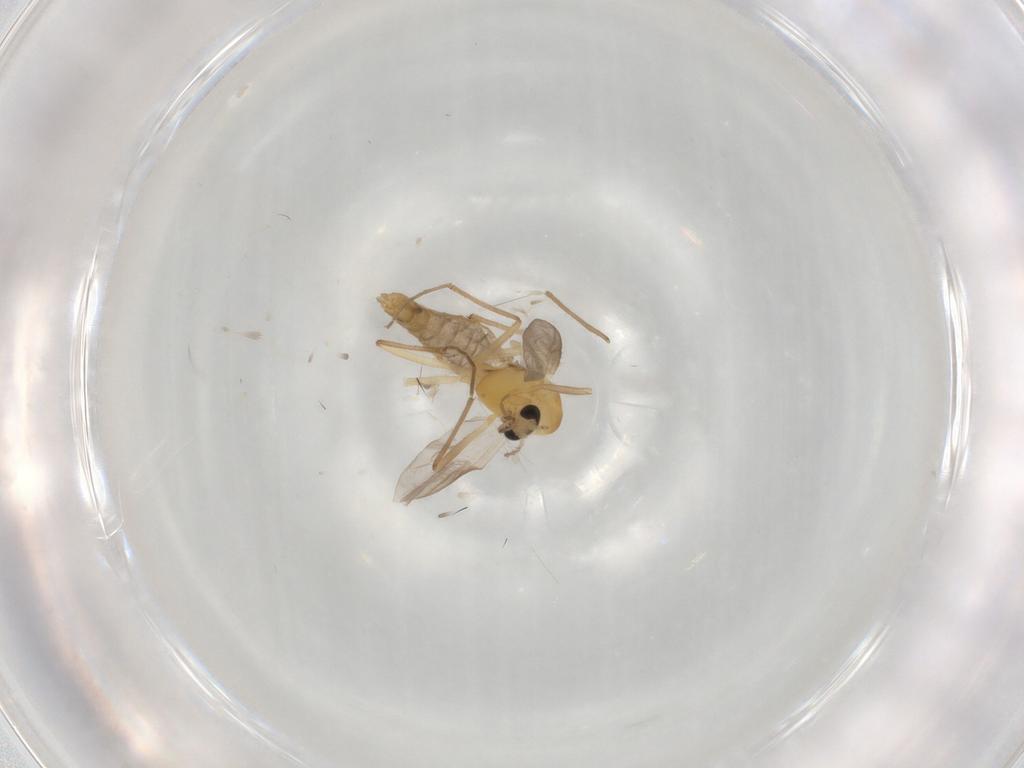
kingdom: Animalia
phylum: Arthropoda
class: Insecta
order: Diptera
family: Chironomidae
